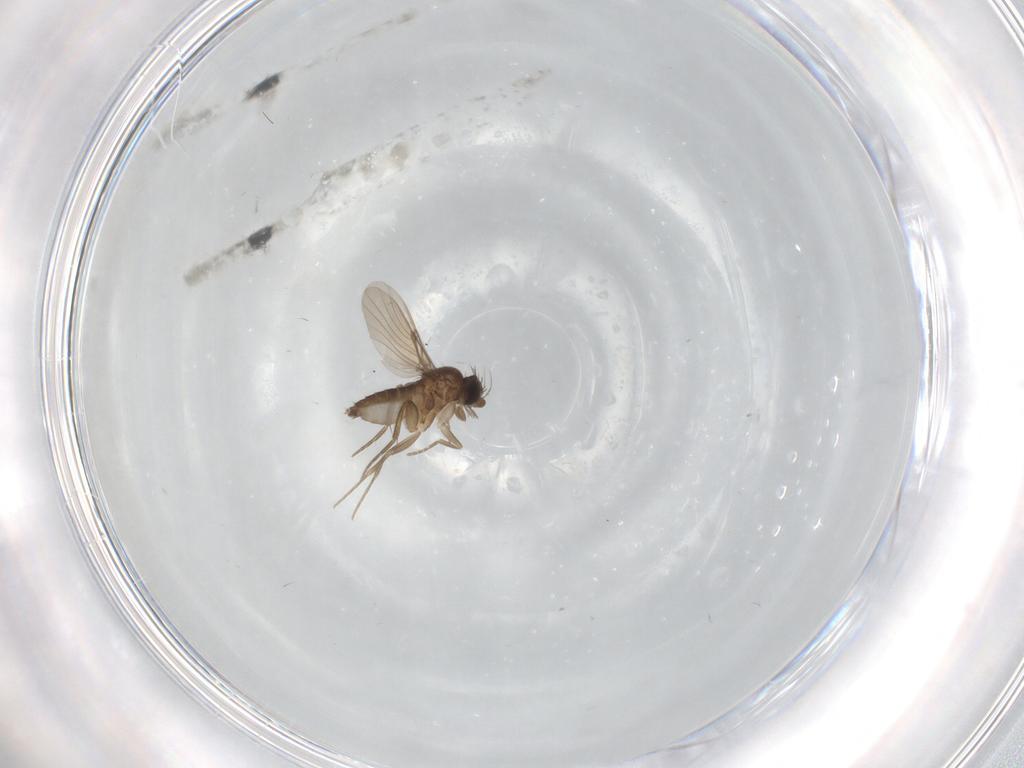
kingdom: Animalia
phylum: Arthropoda
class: Insecta
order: Diptera
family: Phoridae
